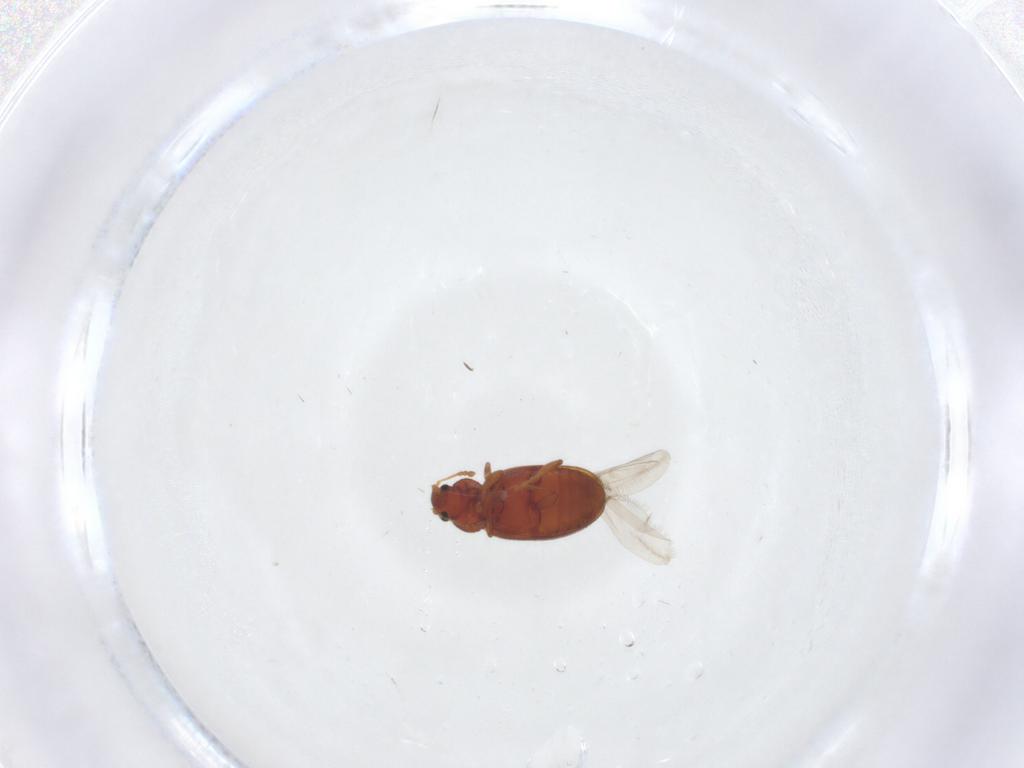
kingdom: Animalia
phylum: Arthropoda
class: Insecta
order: Coleoptera
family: Latridiidae
